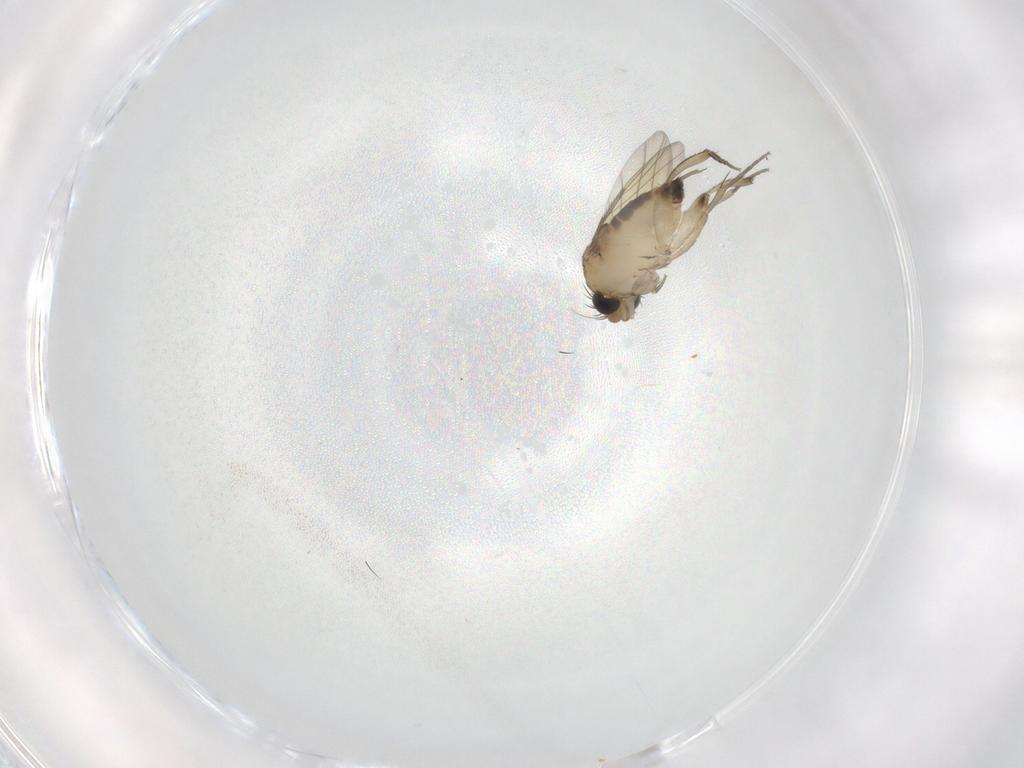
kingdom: Animalia
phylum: Arthropoda
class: Insecta
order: Diptera
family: Phoridae
